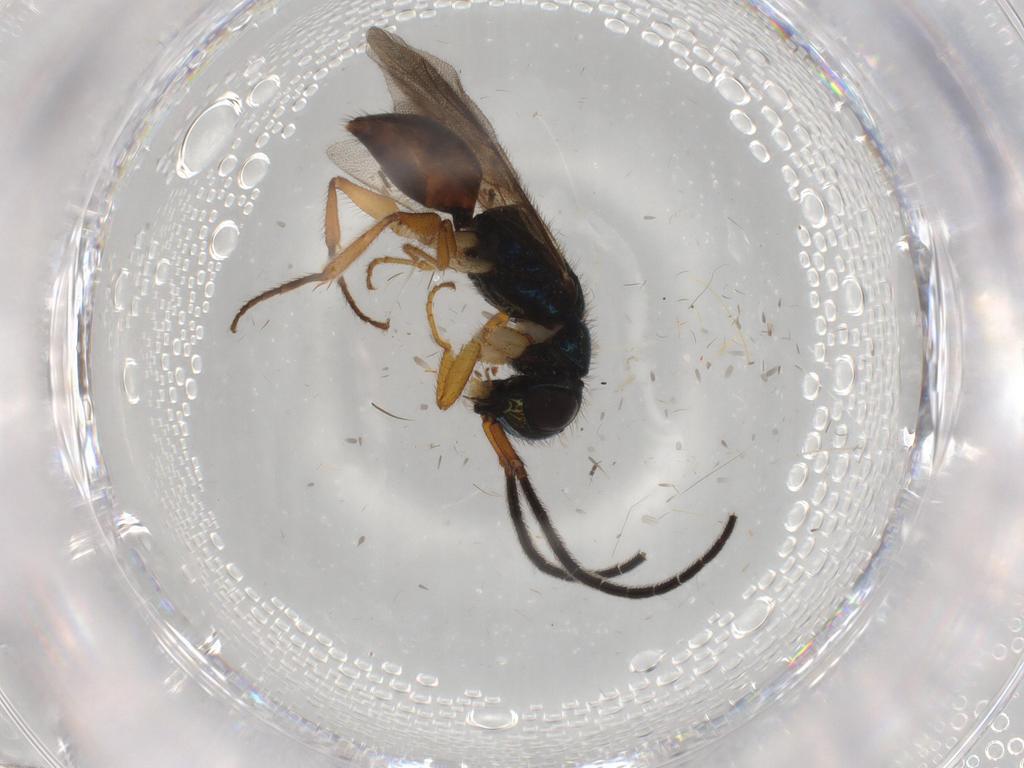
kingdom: Animalia
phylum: Arthropoda
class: Insecta
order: Hymenoptera
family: Chrysididae
